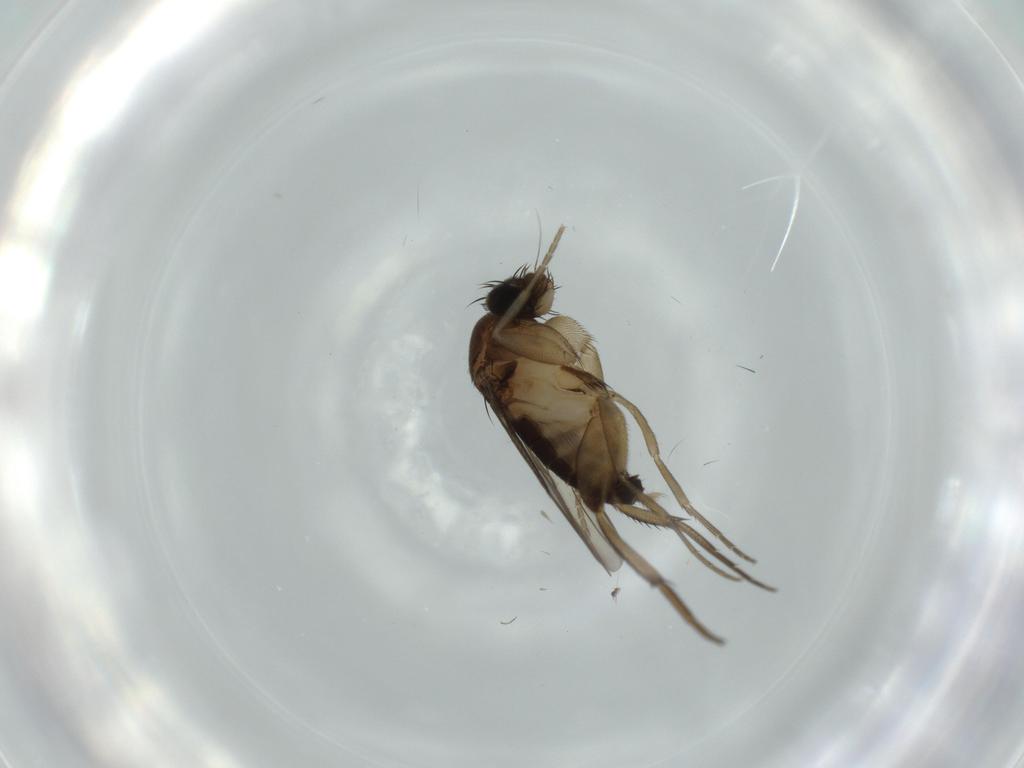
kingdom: Animalia
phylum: Arthropoda
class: Insecta
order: Diptera
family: Phoridae
